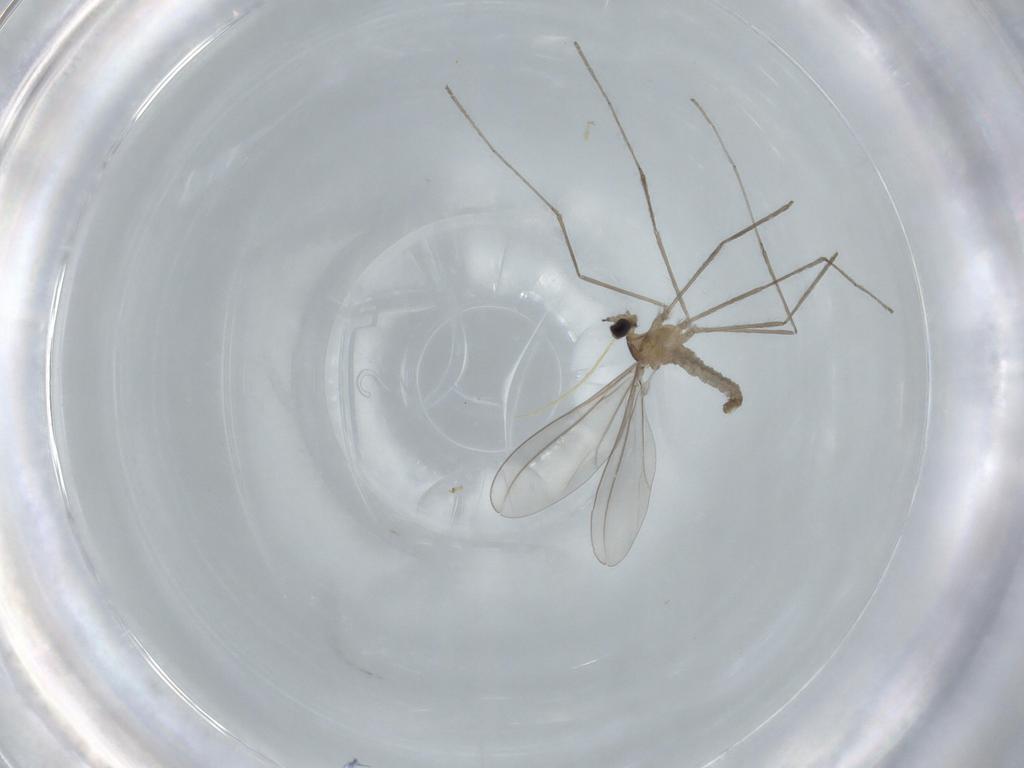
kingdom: Animalia
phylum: Arthropoda
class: Insecta
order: Diptera
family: Cecidomyiidae
